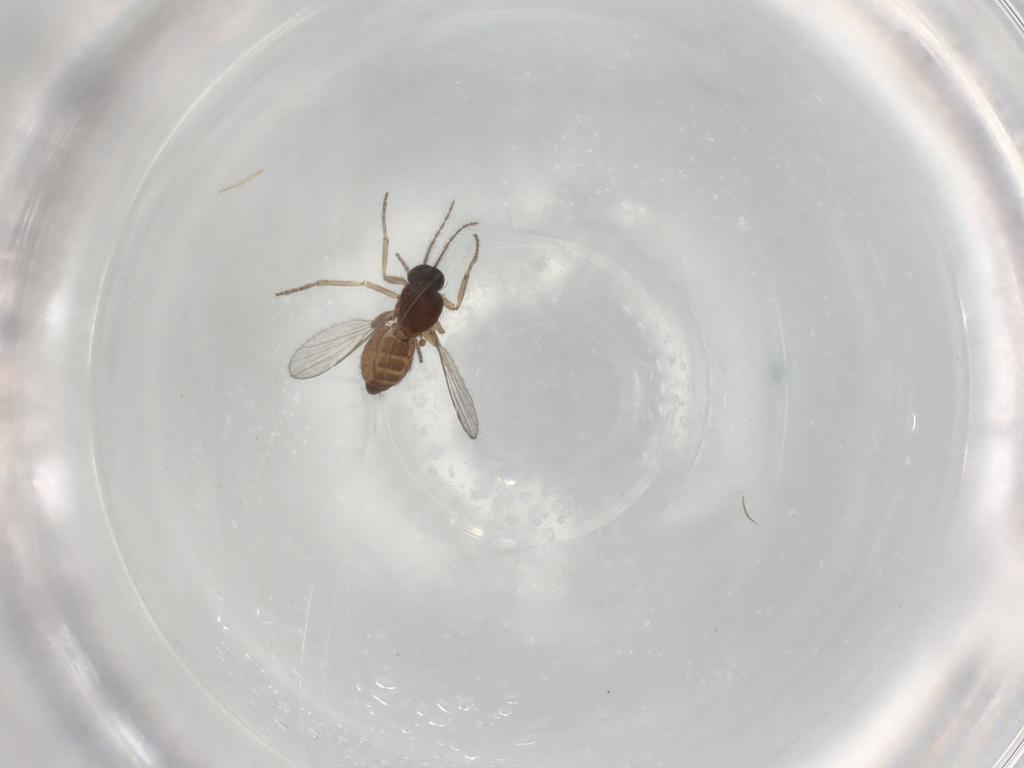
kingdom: Animalia
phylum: Arthropoda
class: Insecta
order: Diptera
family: Ceratopogonidae
